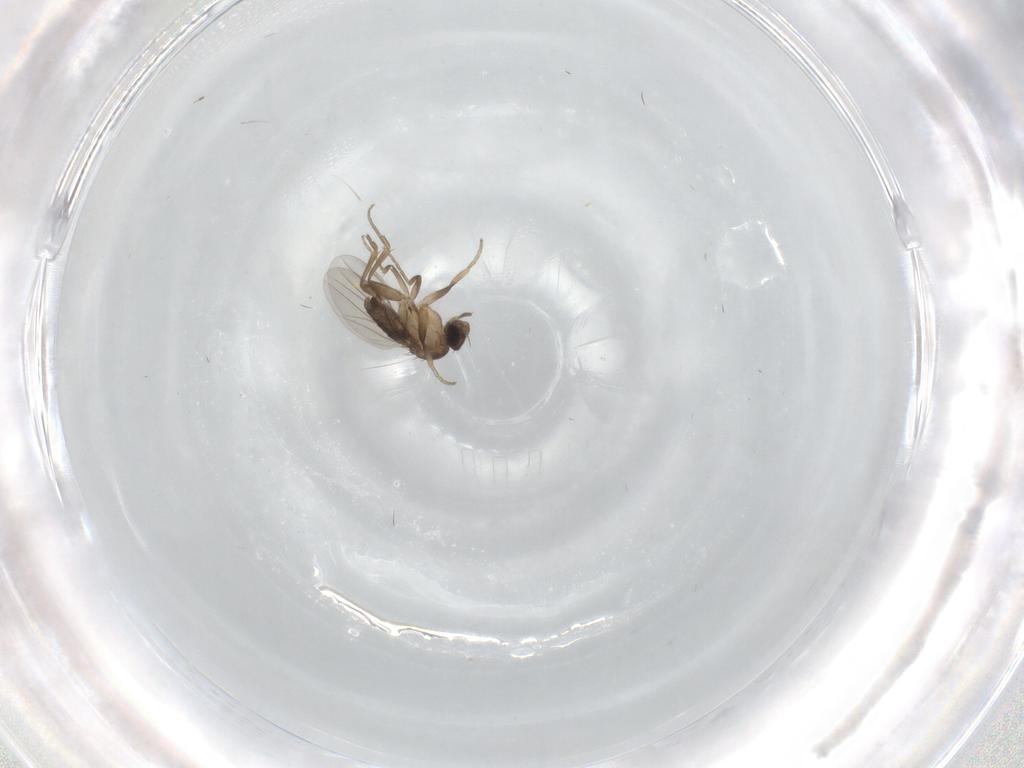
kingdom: Animalia
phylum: Arthropoda
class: Insecta
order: Diptera
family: Phoridae
